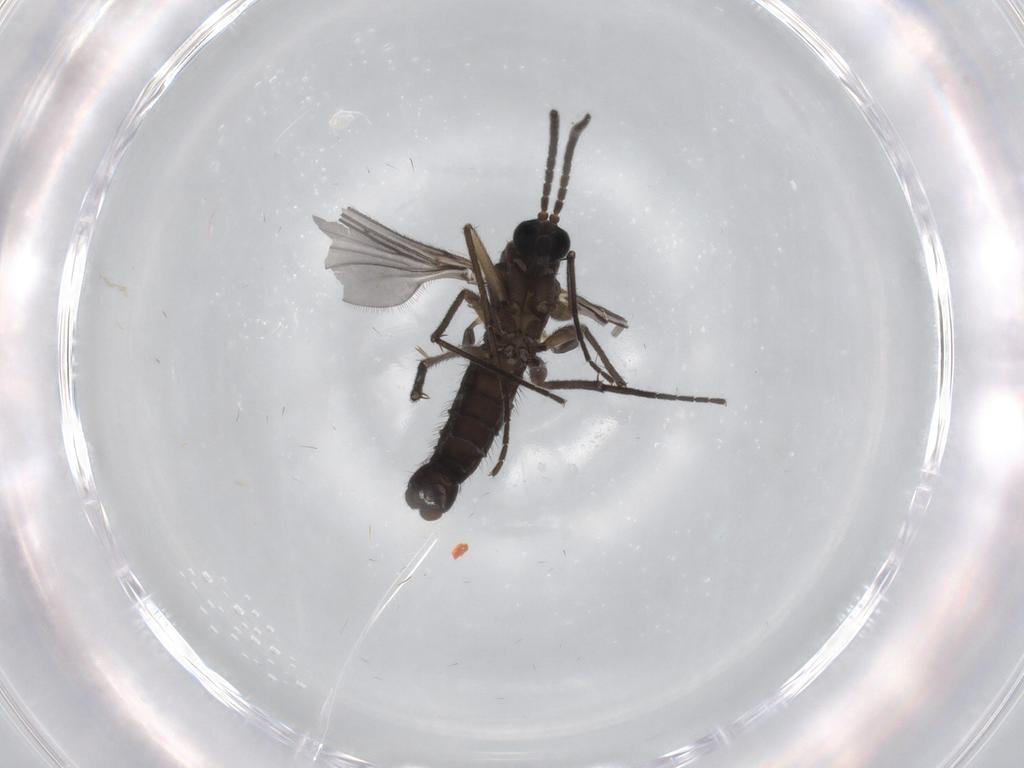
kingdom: Animalia
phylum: Arthropoda
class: Insecta
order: Diptera
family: Sciaridae
